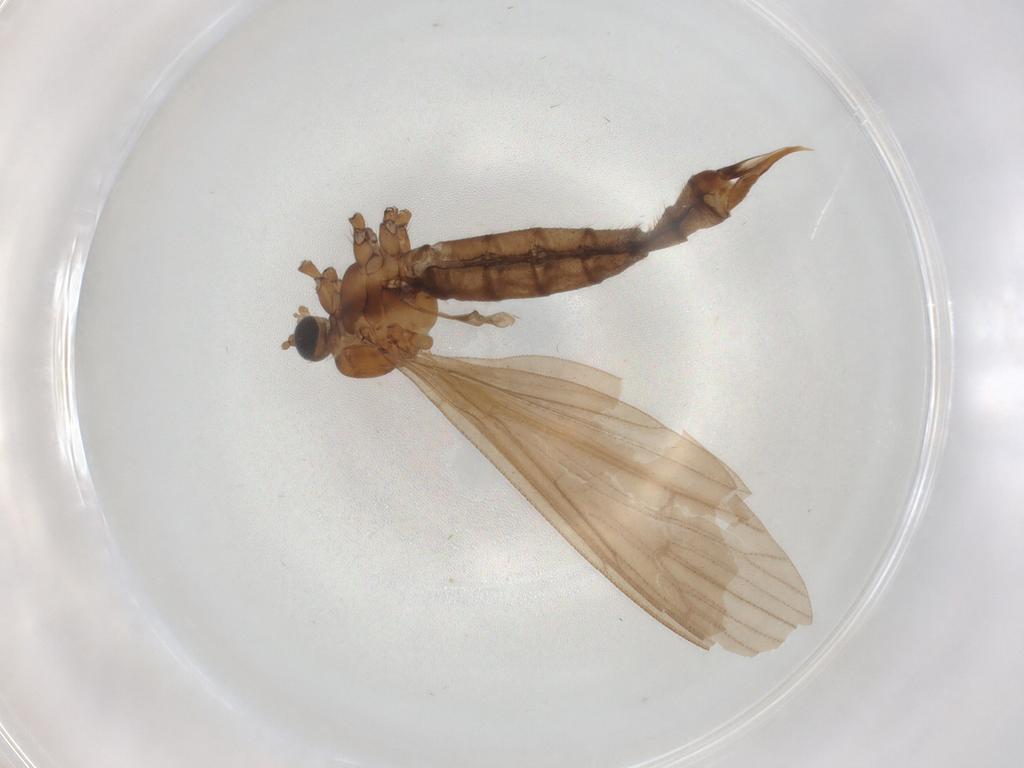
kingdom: Animalia
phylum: Arthropoda
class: Insecta
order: Diptera
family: Limoniidae
